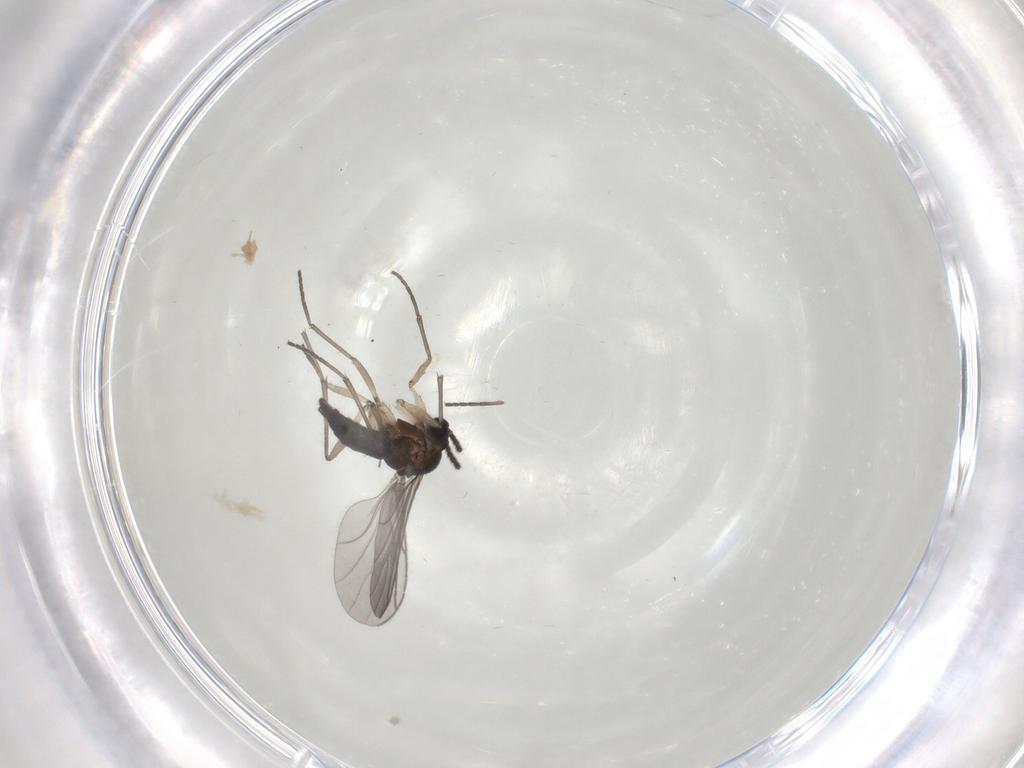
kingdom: Animalia
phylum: Arthropoda
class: Insecta
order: Diptera
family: Sciaridae
